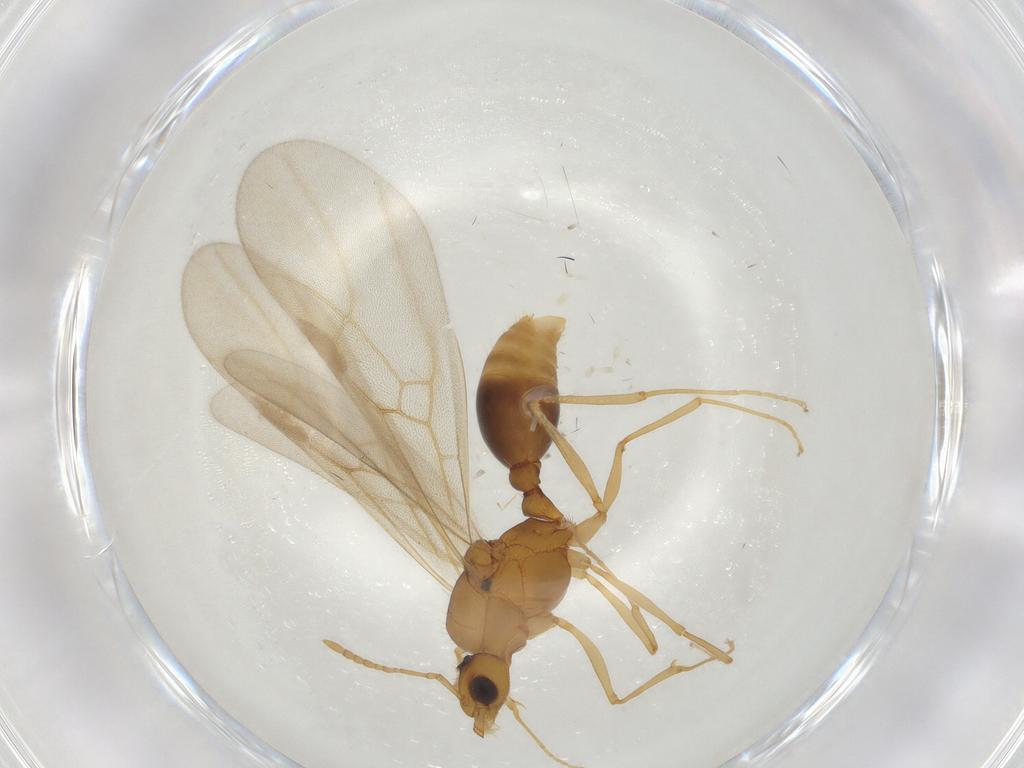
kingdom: Animalia
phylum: Arthropoda
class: Insecta
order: Hymenoptera
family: Formicidae
